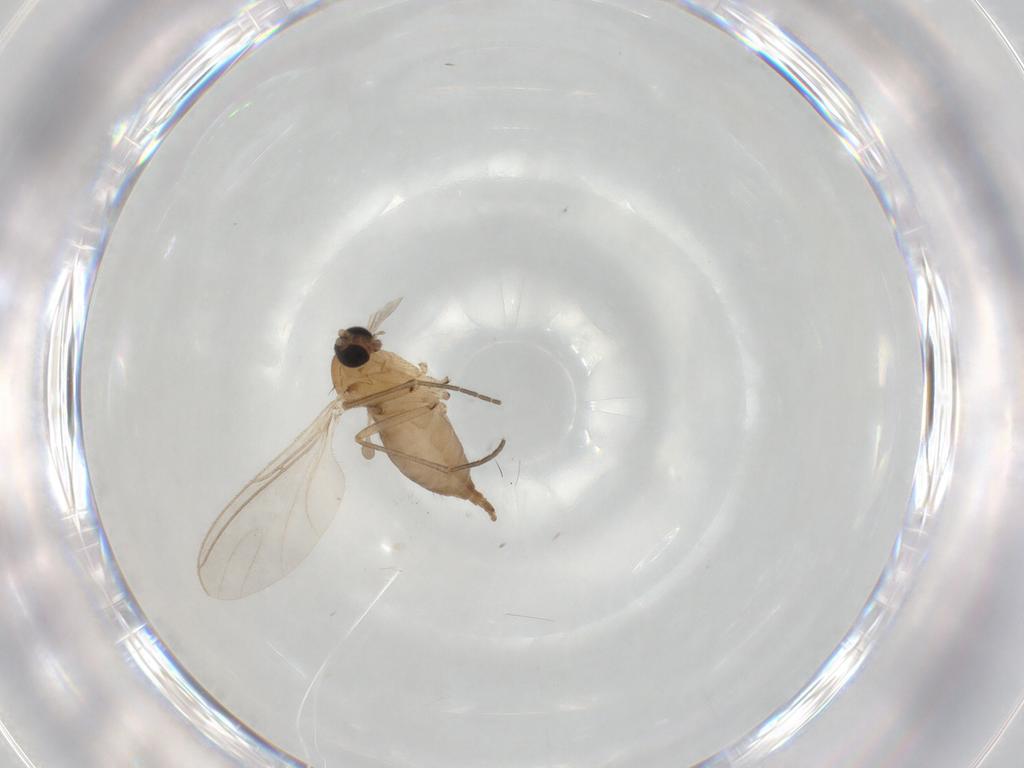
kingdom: Animalia
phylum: Arthropoda
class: Insecta
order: Diptera
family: Sciaridae
